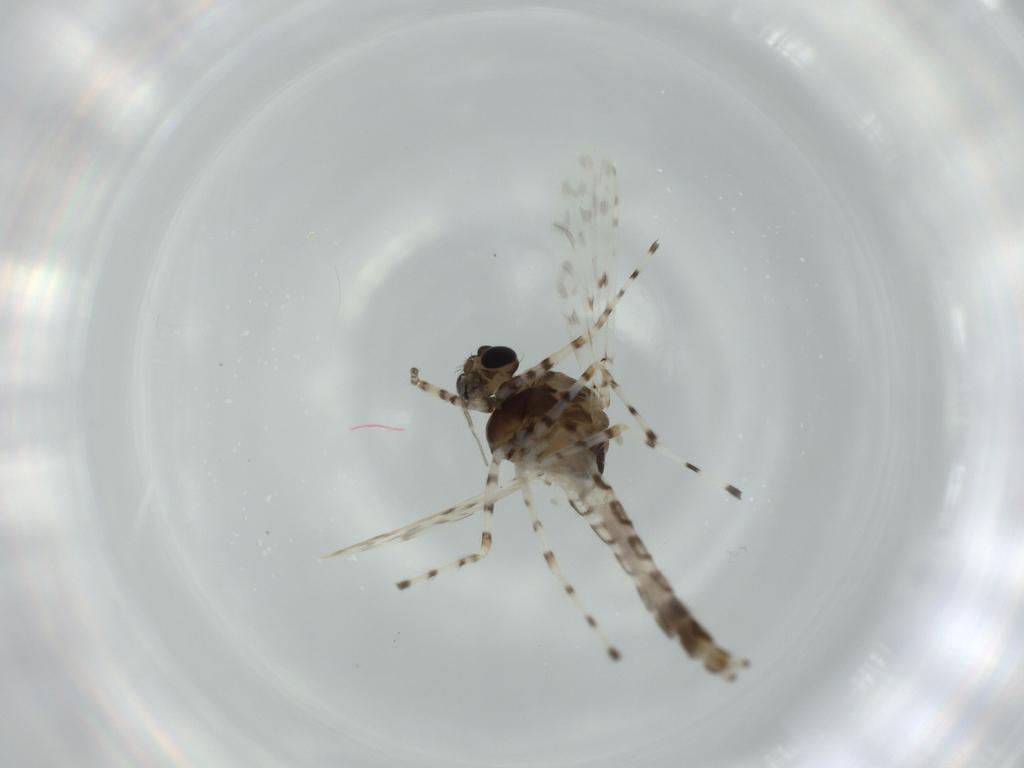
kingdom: Animalia
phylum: Arthropoda
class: Insecta
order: Diptera
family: Chironomidae
